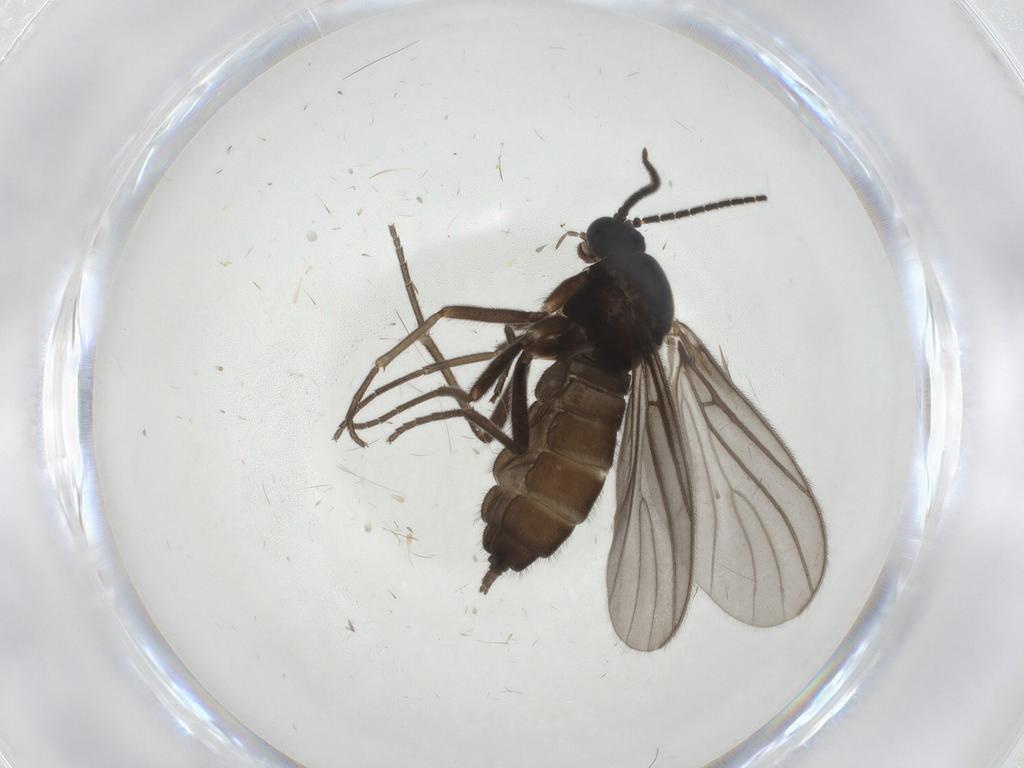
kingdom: Animalia
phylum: Arthropoda
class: Insecta
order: Diptera
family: Sciaridae
